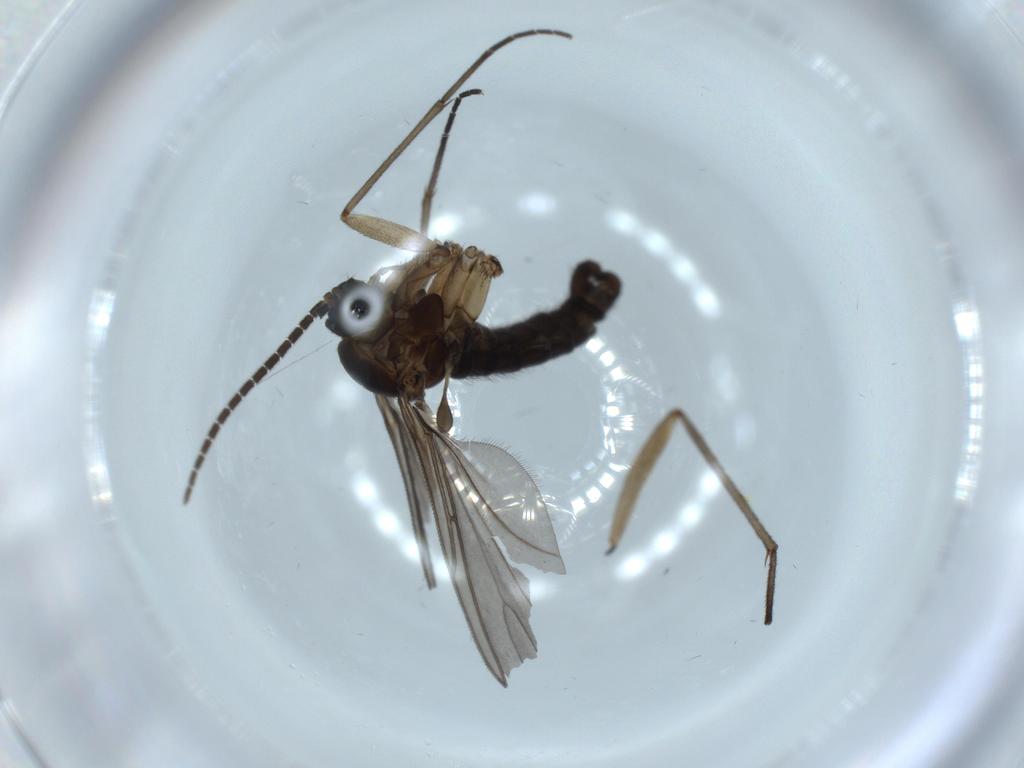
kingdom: Animalia
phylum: Arthropoda
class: Insecta
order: Diptera
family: Sciaridae
